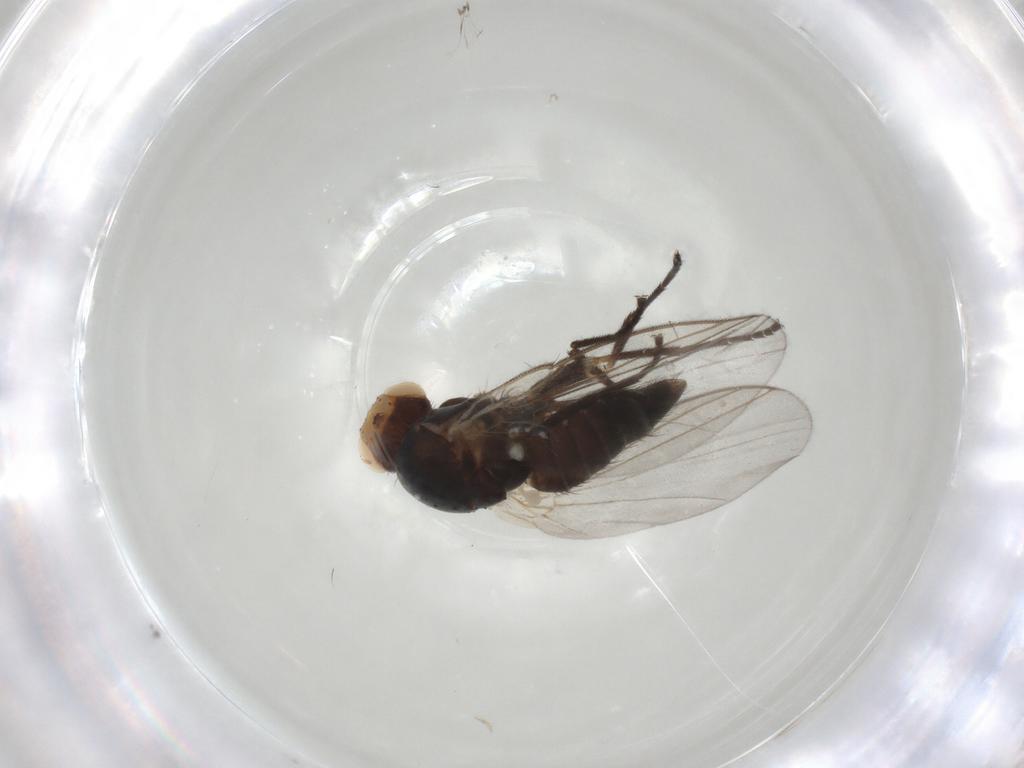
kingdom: Animalia
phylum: Arthropoda
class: Insecta
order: Diptera
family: Agromyzidae
